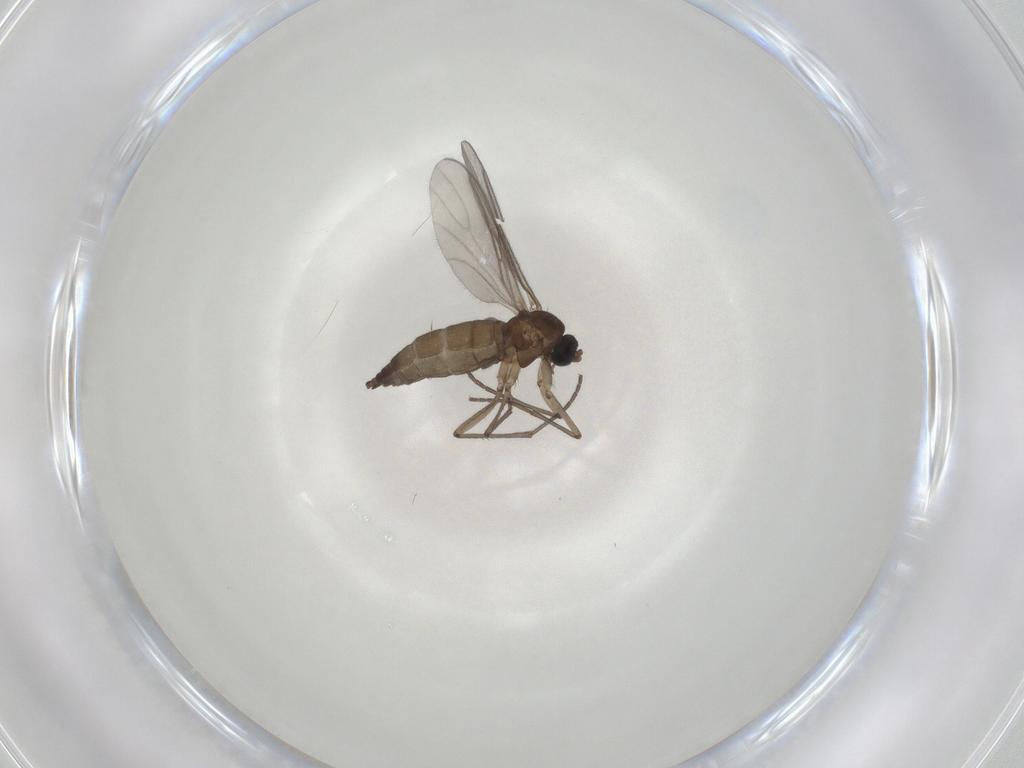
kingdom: Animalia
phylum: Arthropoda
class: Insecta
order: Diptera
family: Sciaridae
